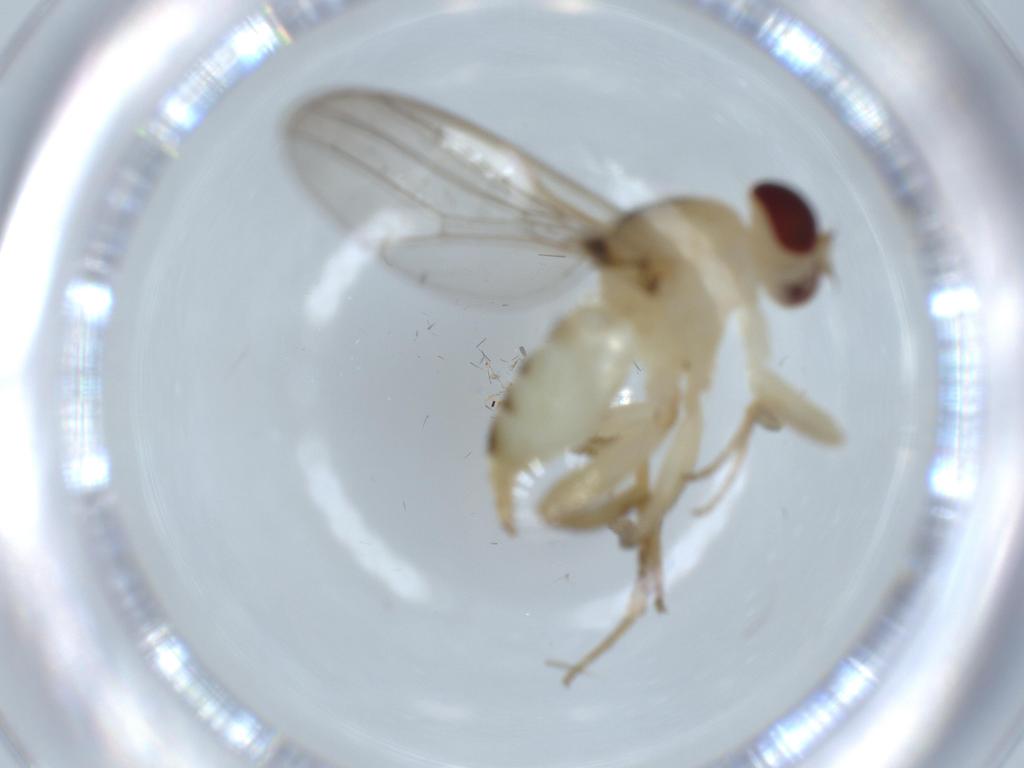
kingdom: Animalia
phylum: Arthropoda
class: Insecta
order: Diptera
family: Chloropidae
